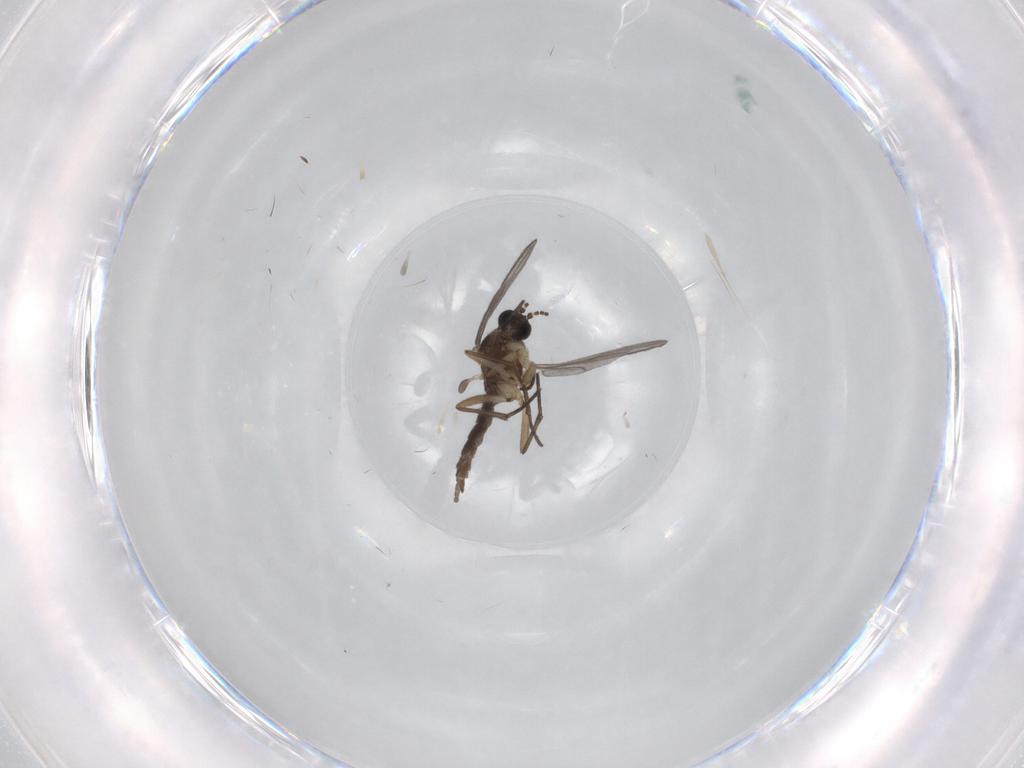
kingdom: Animalia
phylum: Arthropoda
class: Insecta
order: Diptera
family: Sciaridae
